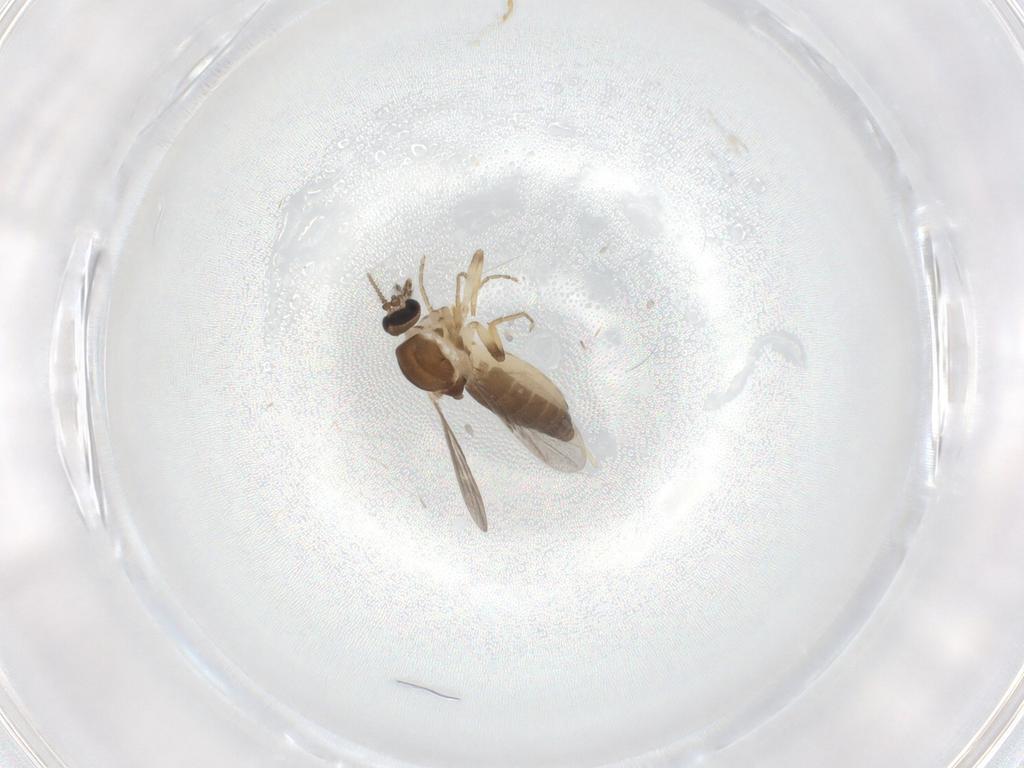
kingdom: Animalia
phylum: Arthropoda
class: Insecta
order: Diptera
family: Ceratopogonidae
